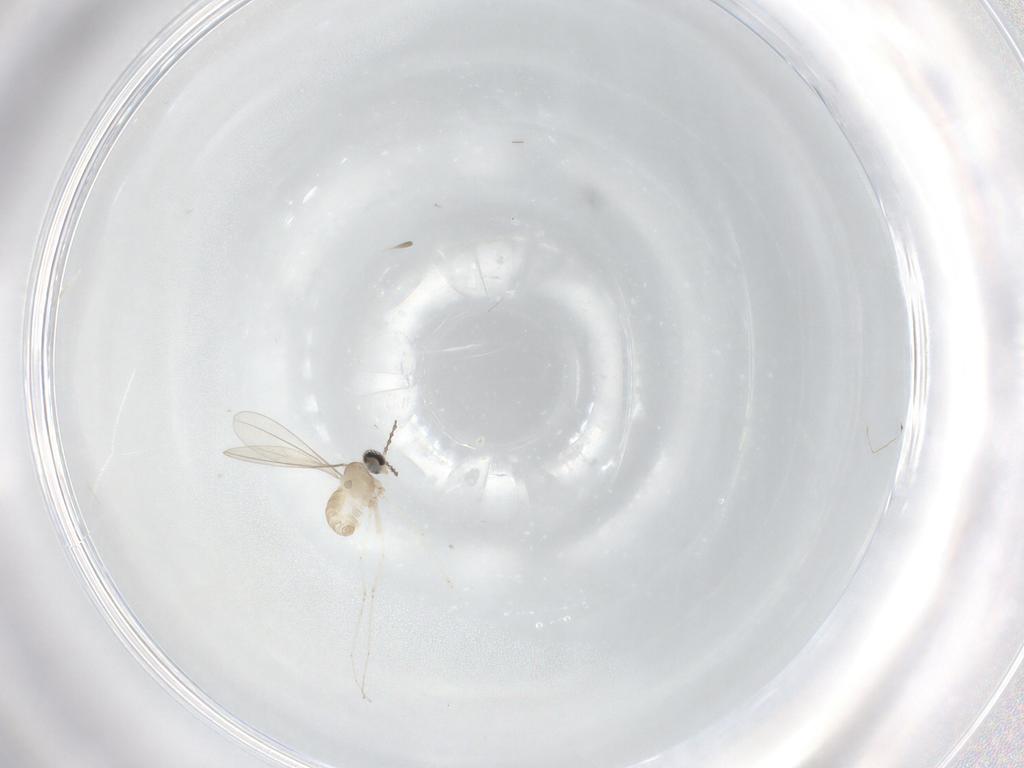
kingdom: Animalia
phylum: Arthropoda
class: Insecta
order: Diptera
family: Cecidomyiidae
